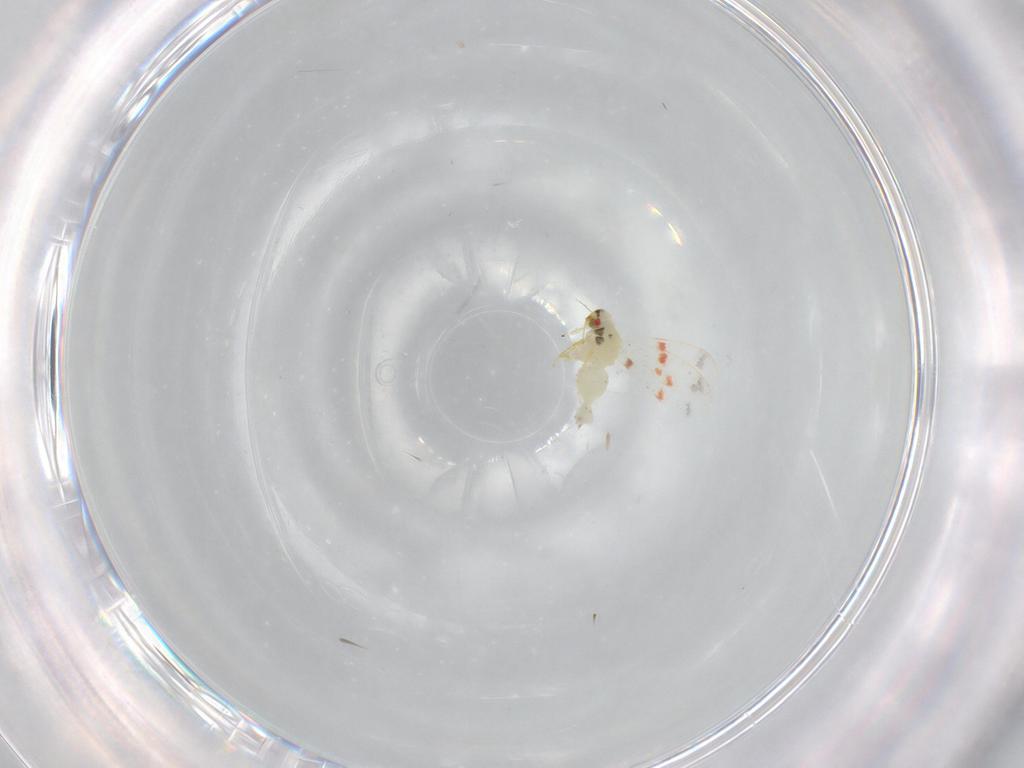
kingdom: Animalia
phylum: Arthropoda
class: Insecta
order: Hemiptera
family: Aleyrodidae
